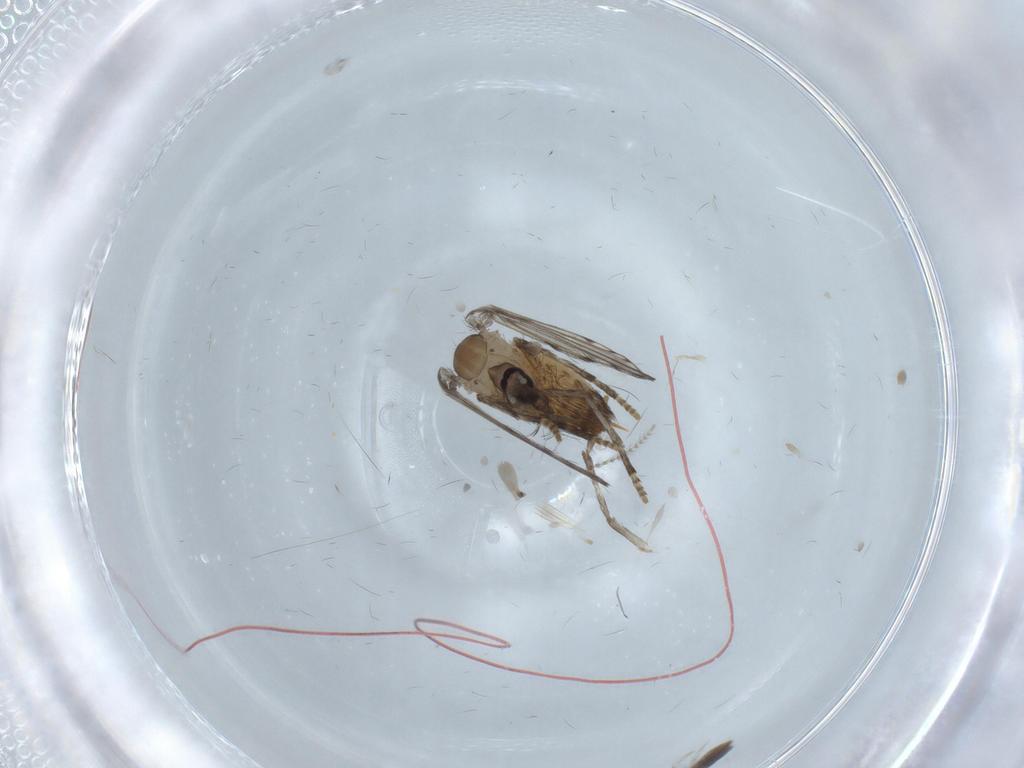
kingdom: Animalia
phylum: Arthropoda
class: Insecta
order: Diptera
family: Psychodidae
